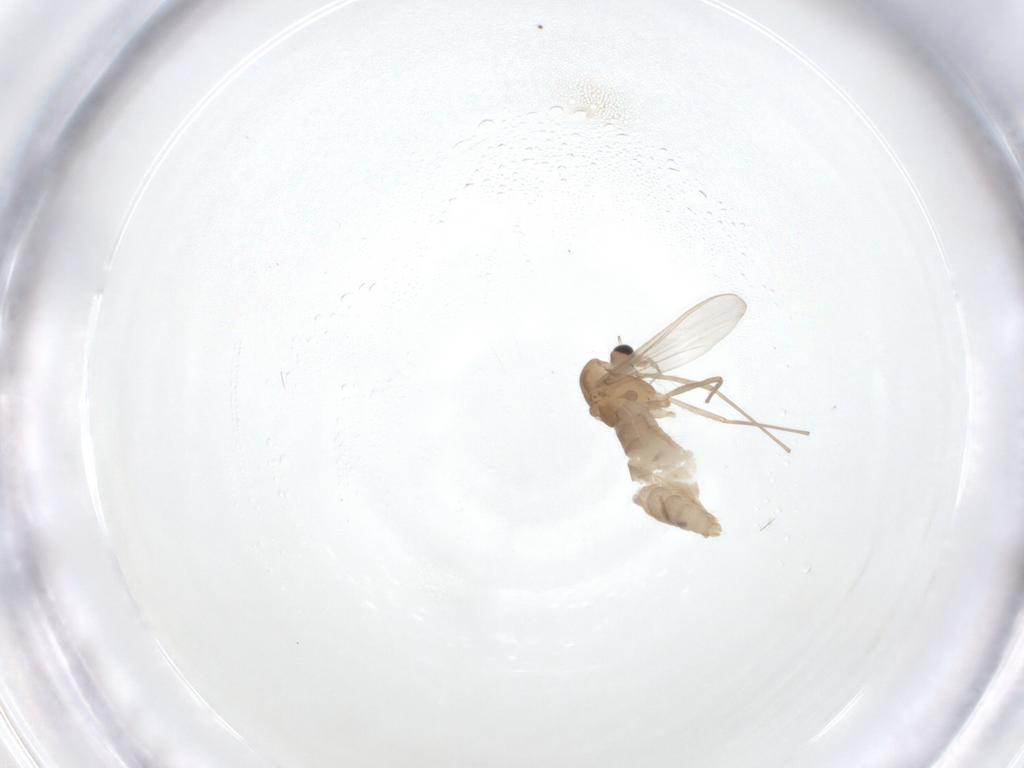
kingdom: Animalia
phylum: Arthropoda
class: Insecta
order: Diptera
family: Chironomidae
